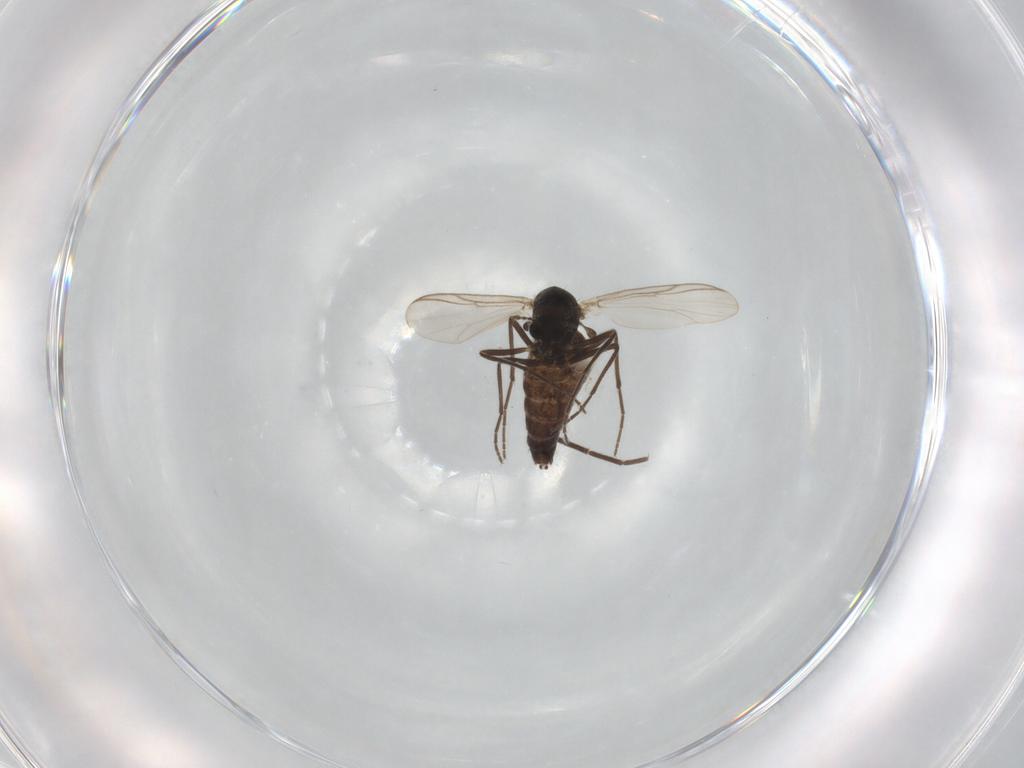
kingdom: Animalia
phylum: Arthropoda
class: Insecta
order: Diptera
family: Chironomidae
